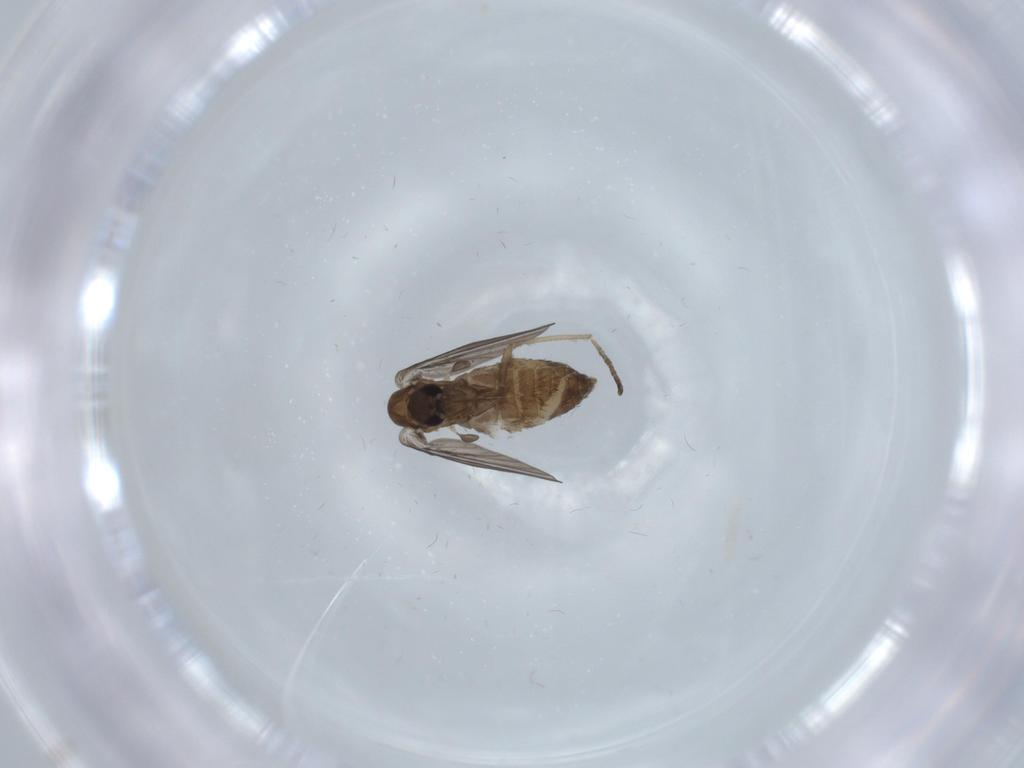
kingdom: Animalia
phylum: Arthropoda
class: Insecta
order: Diptera
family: Psychodidae
